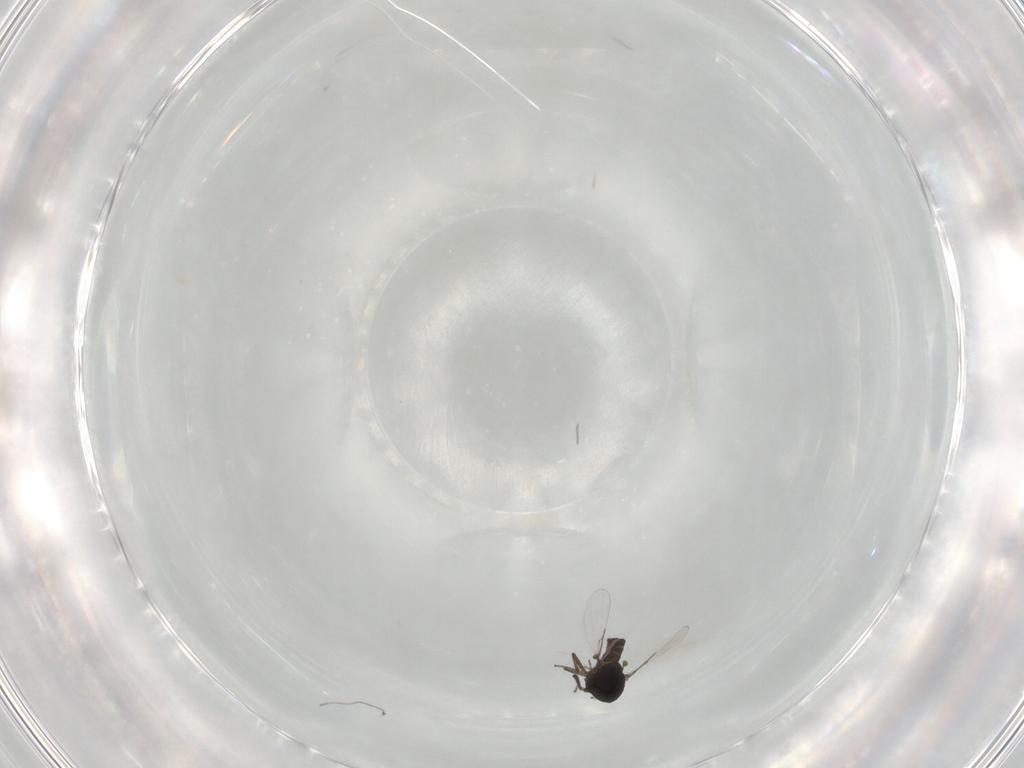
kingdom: Animalia
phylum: Arthropoda
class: Insecta
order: Diptera
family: Ceratopogonidae
